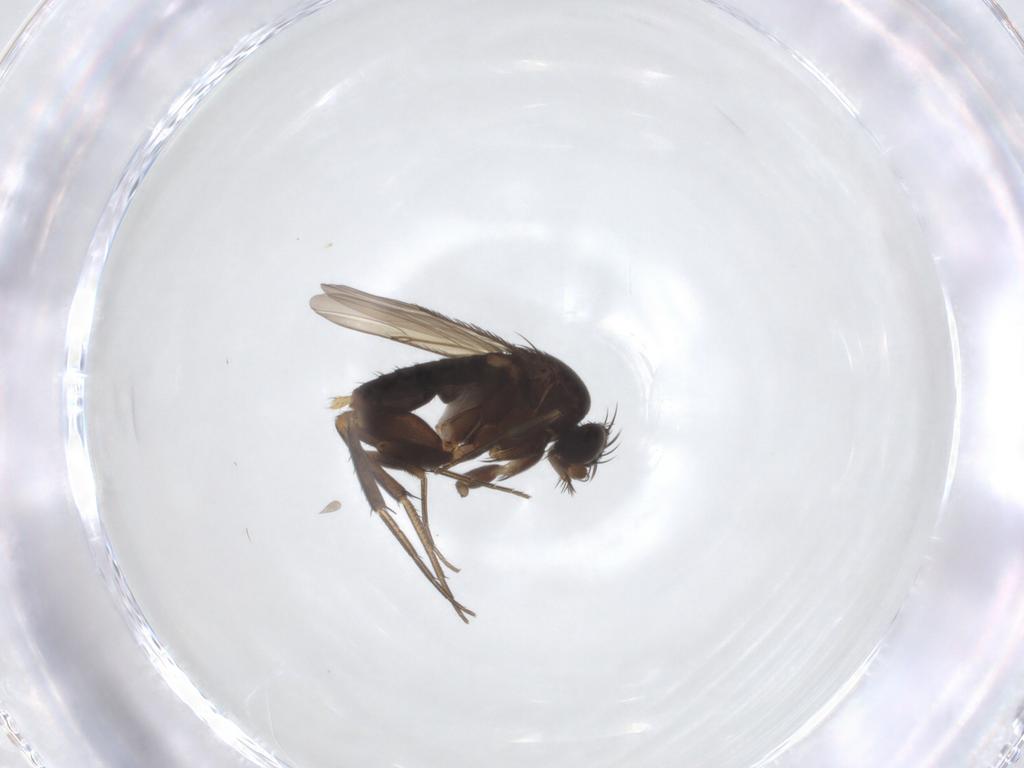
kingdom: Animalia
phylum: Arthropoda
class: Insecta
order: Diptera
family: Phoridae
